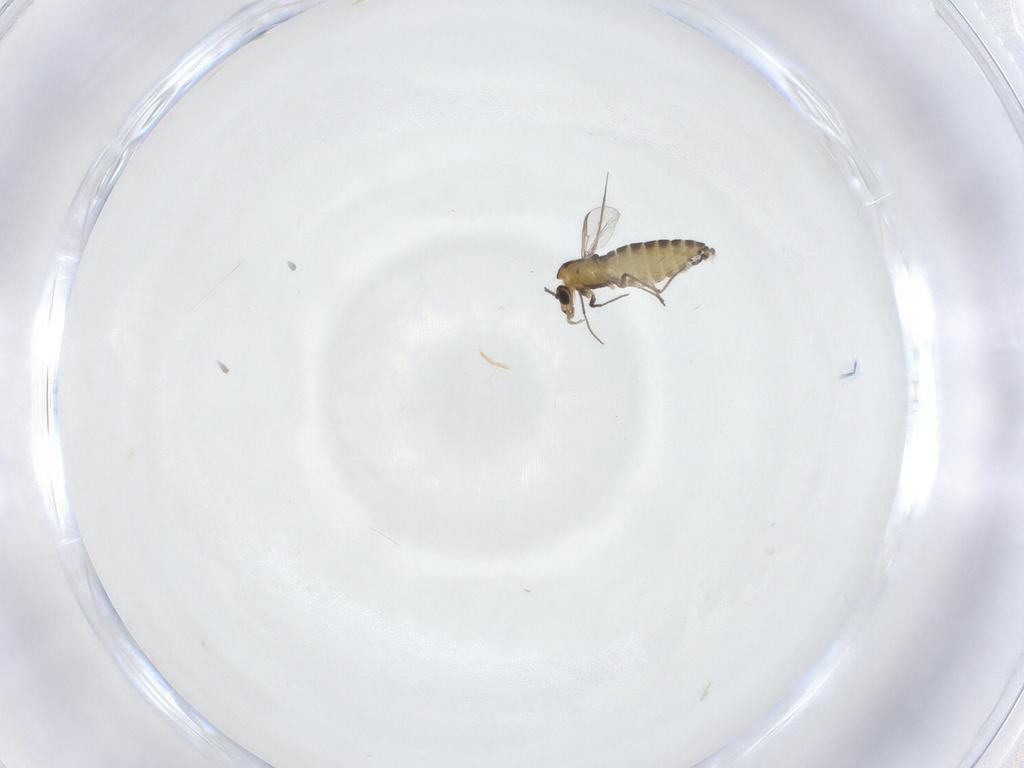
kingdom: Animalia
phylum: Arthropoda
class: Insecta
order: Diptera
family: Chironomidae
